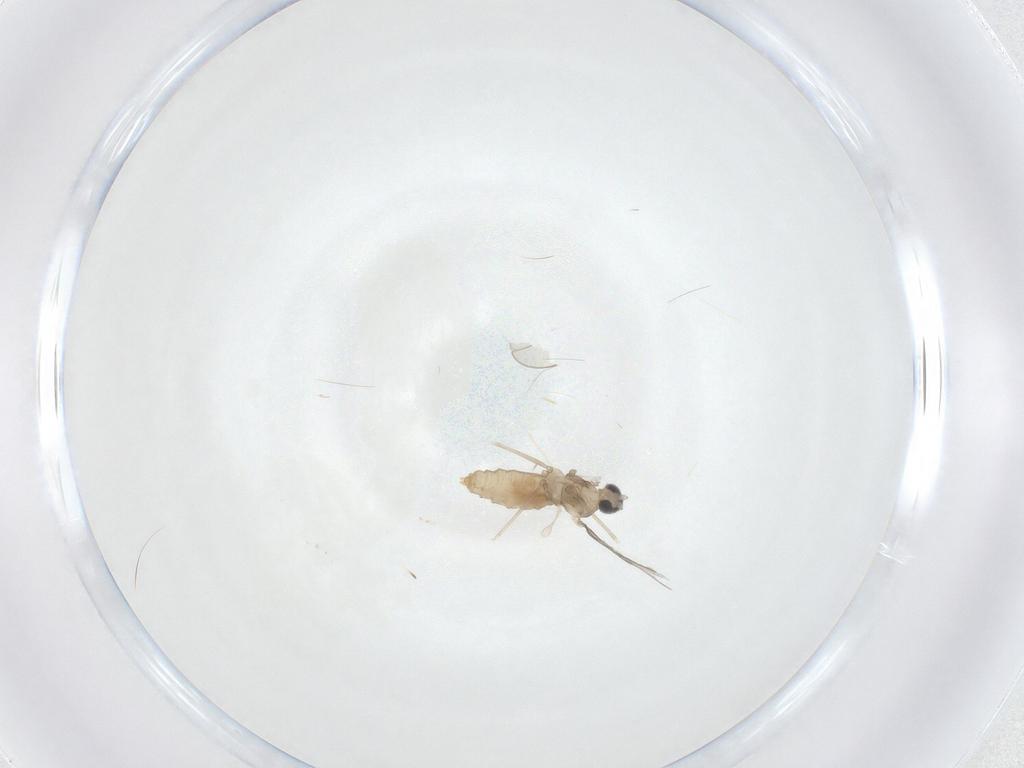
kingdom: Animalia
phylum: Arthropoda
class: Insecta
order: Diptera
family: Cecidomyiidae
